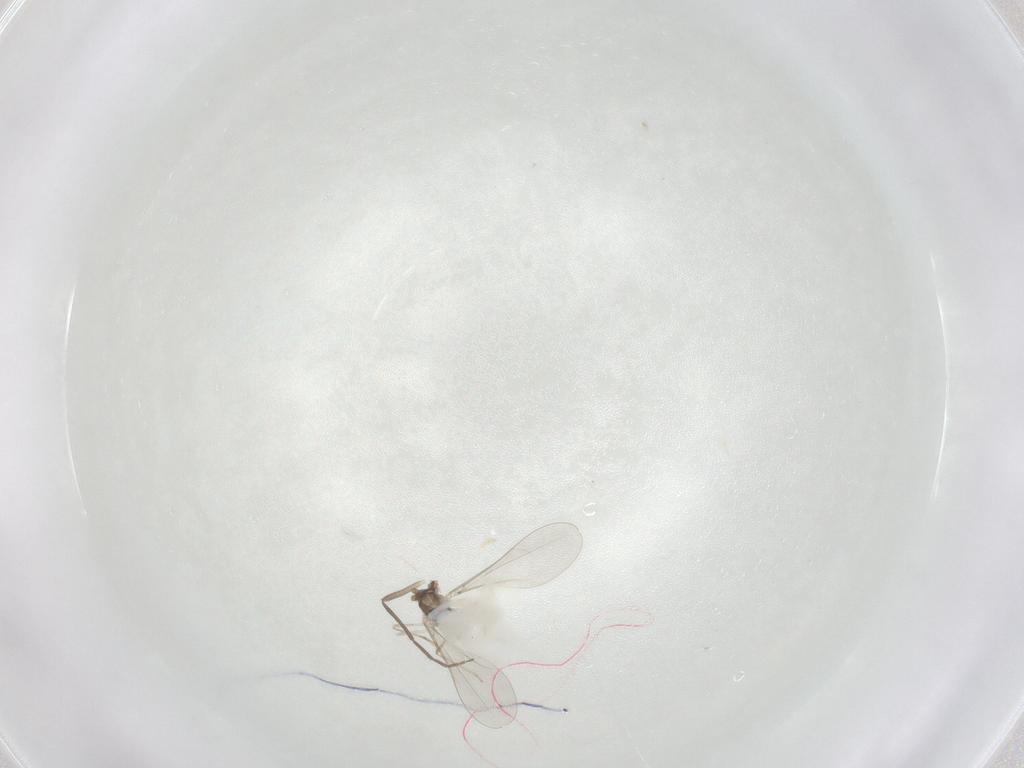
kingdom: Animalia
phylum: Arthropoda
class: Insecta
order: Diptera
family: Cecidomyiidae
